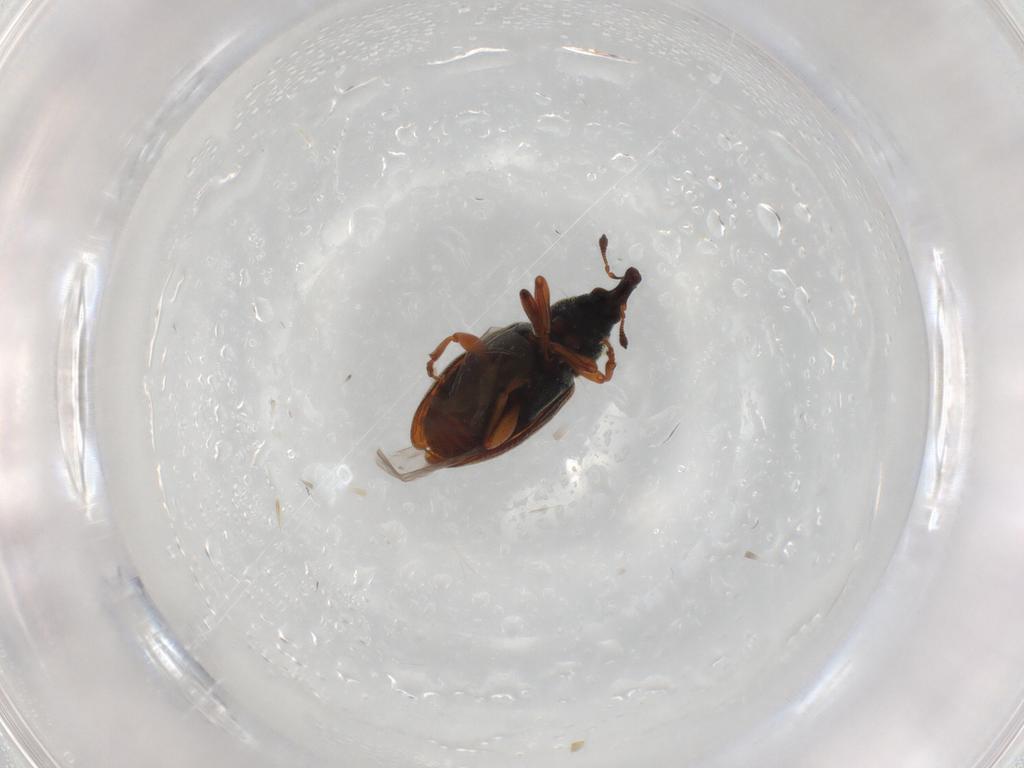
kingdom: Animalia
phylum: Arthropoda
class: Insecta
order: Coleoptera
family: Curculionidae
